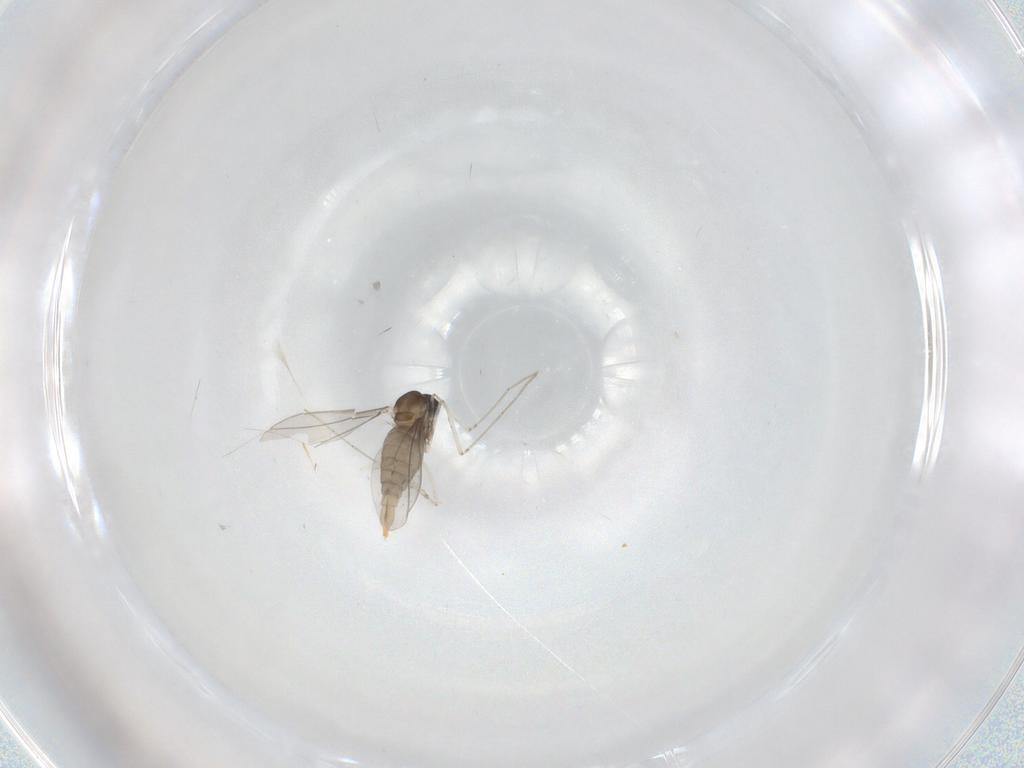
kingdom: Animalia
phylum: Arthropoda
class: Insecta
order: Diptera
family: Cecidomyiidae
